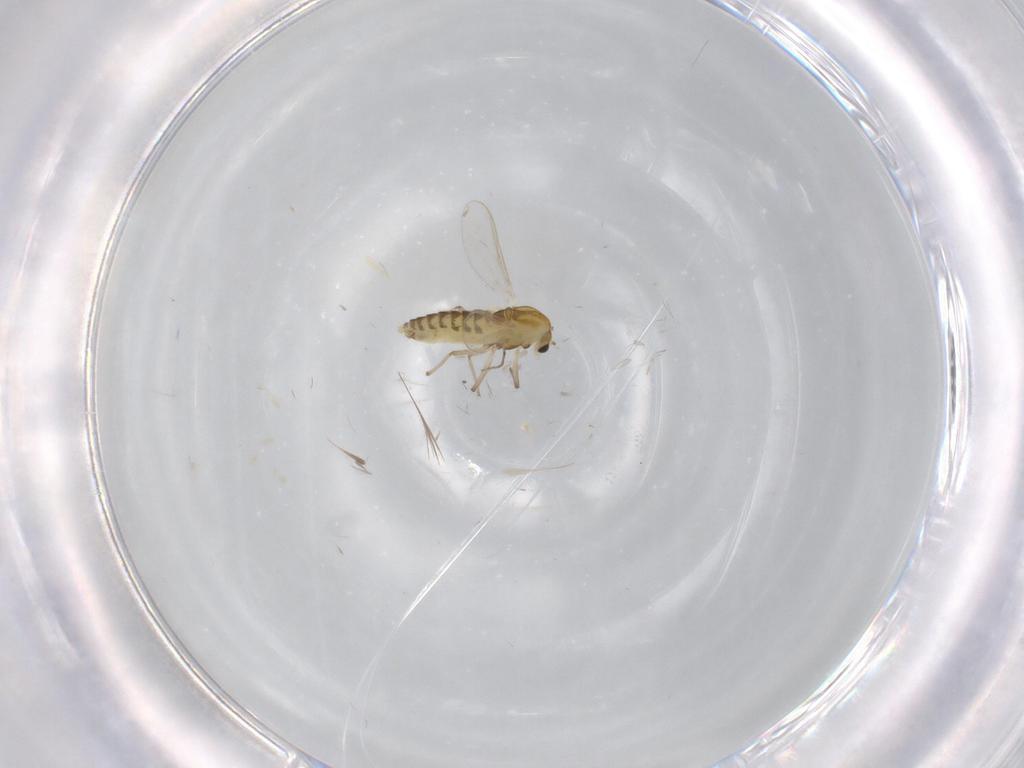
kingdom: Animalia
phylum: Arthropoda
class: Insecta
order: Diptera
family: Chironomidae
